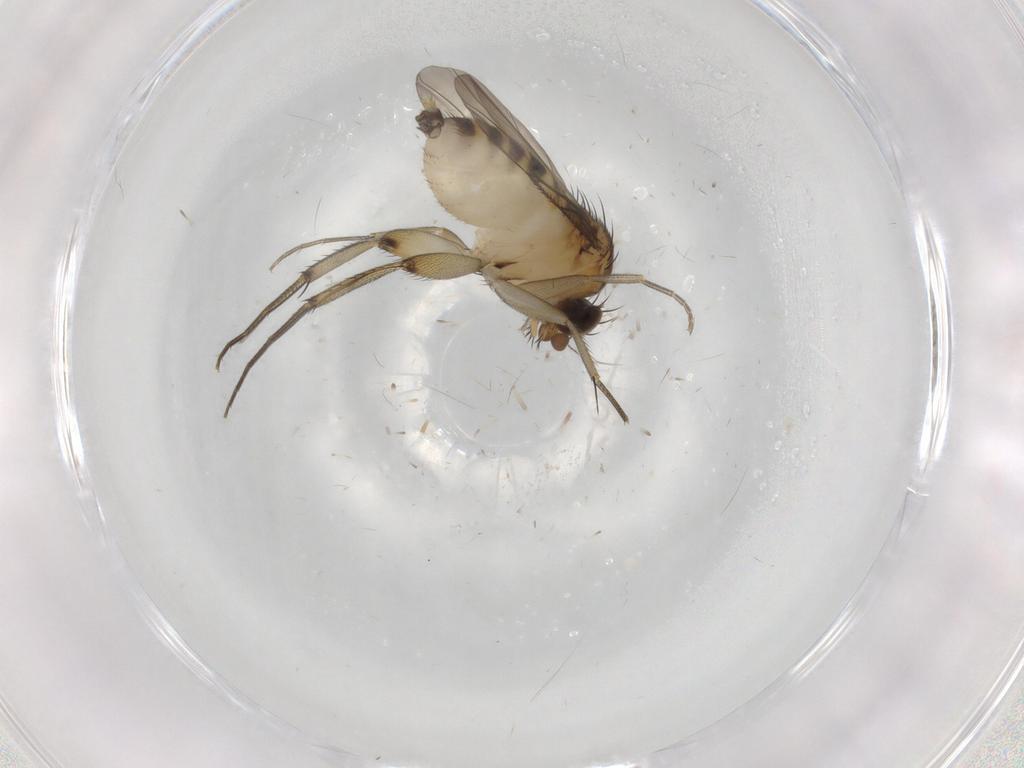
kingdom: Animalia
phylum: Arthropoda
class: Insecta
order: Diptera
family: Phoridae
